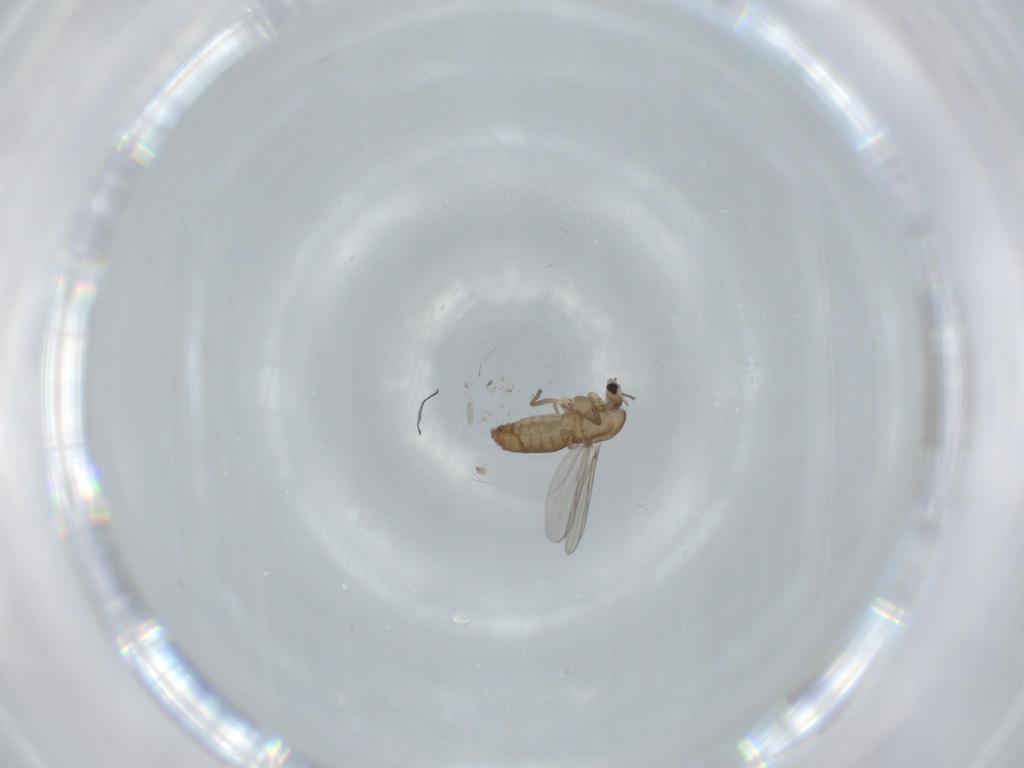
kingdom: Animalia
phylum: Arthropoda
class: Insecta
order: Diptera
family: Chironomidae
